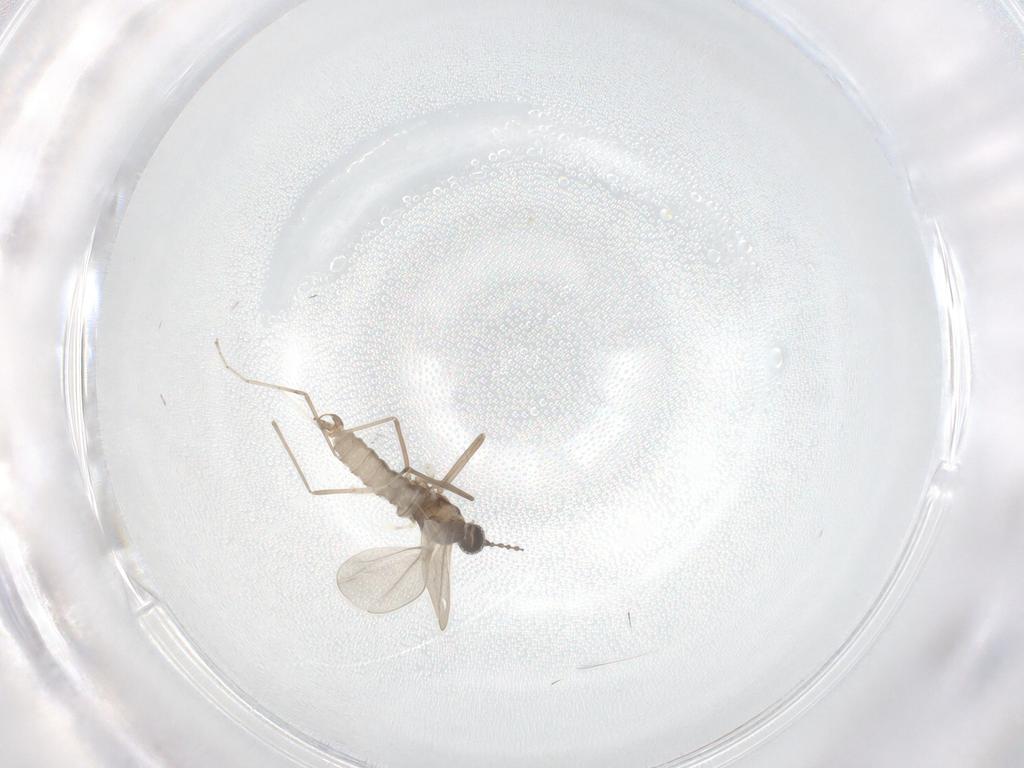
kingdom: Animalia
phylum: Arthropoda
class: Insecta
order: Diptera
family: Cecidomyiidae
